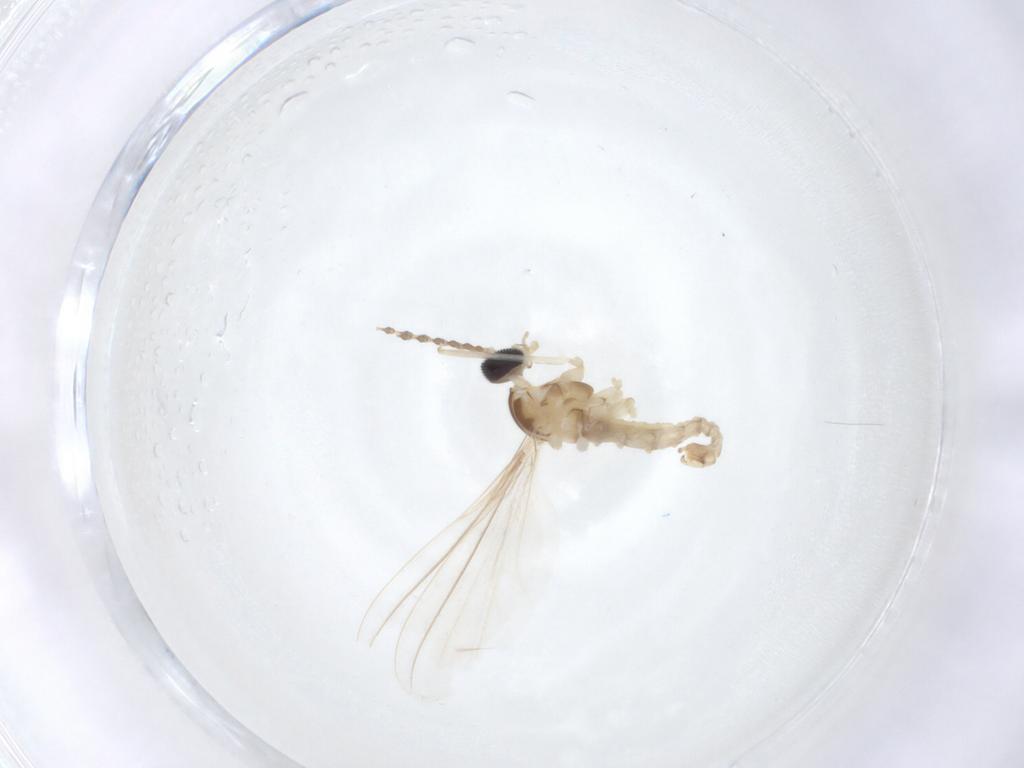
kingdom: Animalia
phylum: Arthropoda
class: Insecta
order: Diptera
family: Cecidomyiidae
